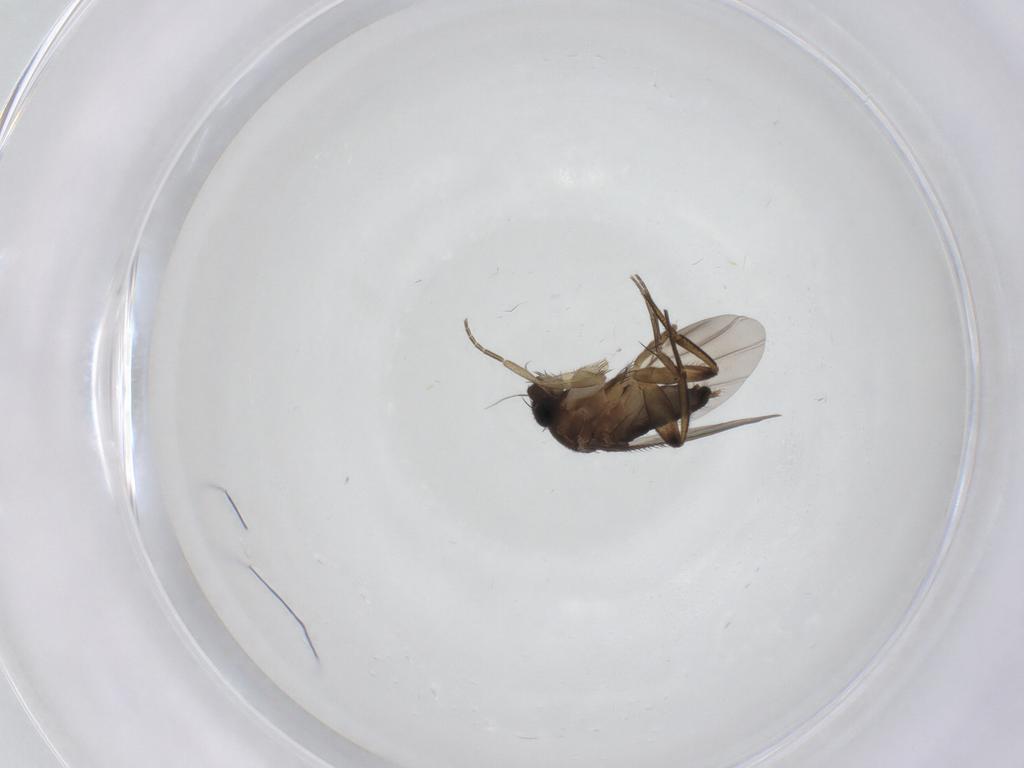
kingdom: Animalia
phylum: Arthropoda
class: Insecta
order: Diptera
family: Phoridae
